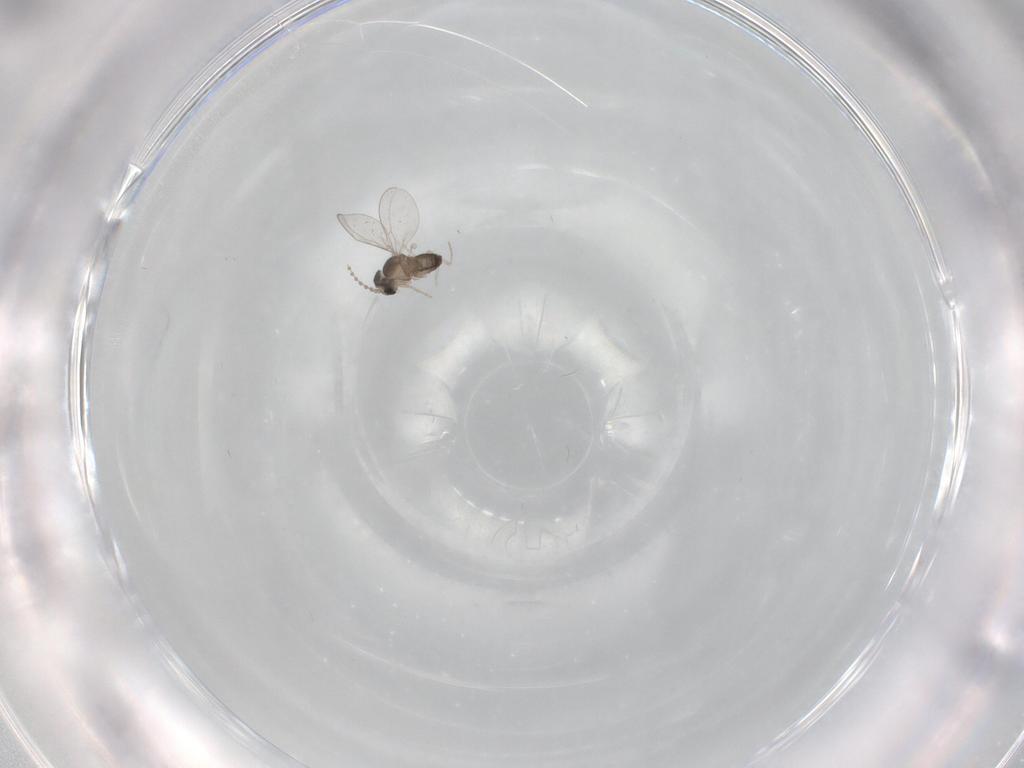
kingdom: Animalia
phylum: Arthropoda
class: Insecta
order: Diptera
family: Cecidomyiidae
